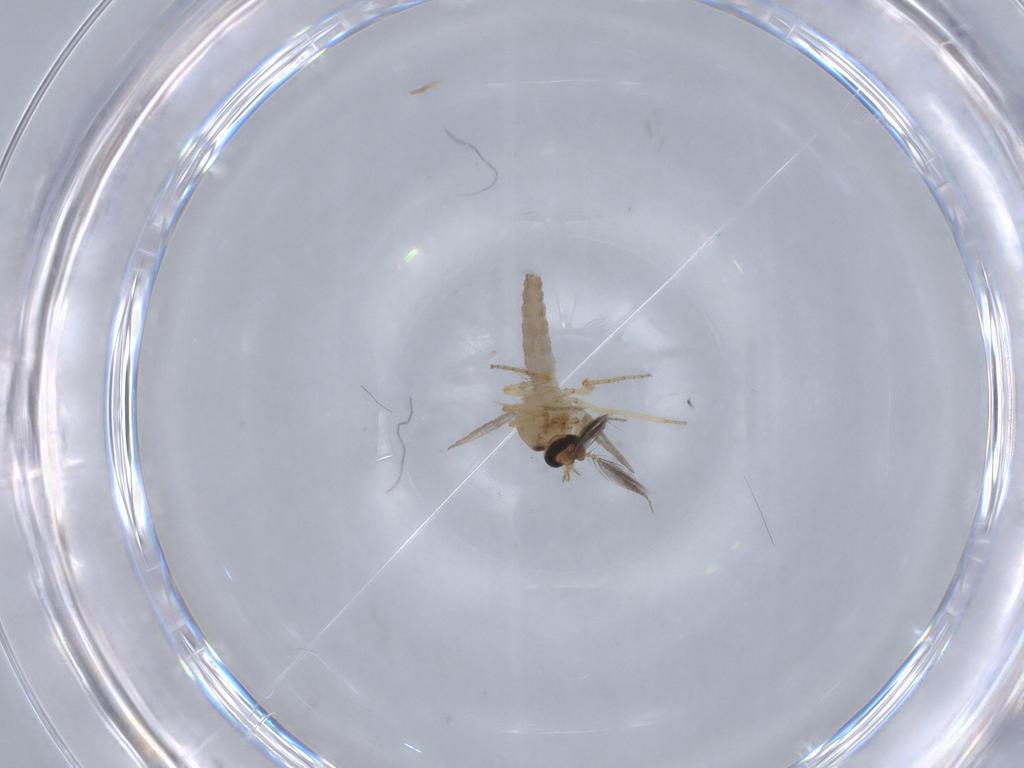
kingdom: Animalia
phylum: Arthropoda
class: Insecta
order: Diptera
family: Ceratopogonidae
